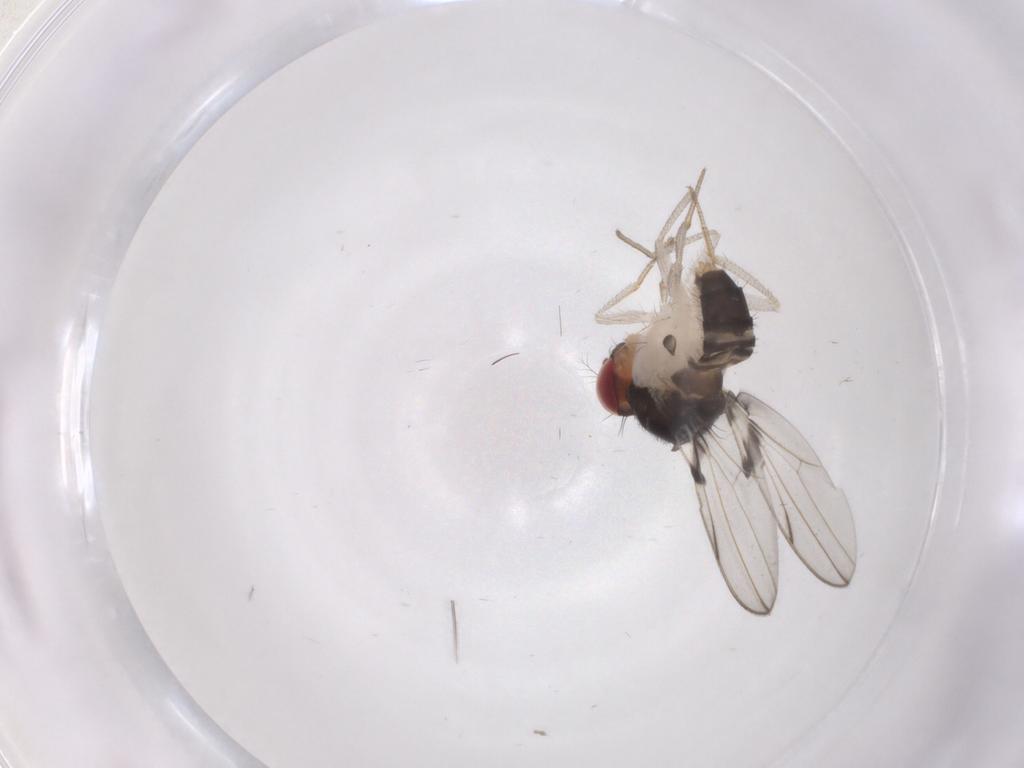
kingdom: Animalia
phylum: Arthropoda
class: Insecta
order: Diptera
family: Drosophilidae
